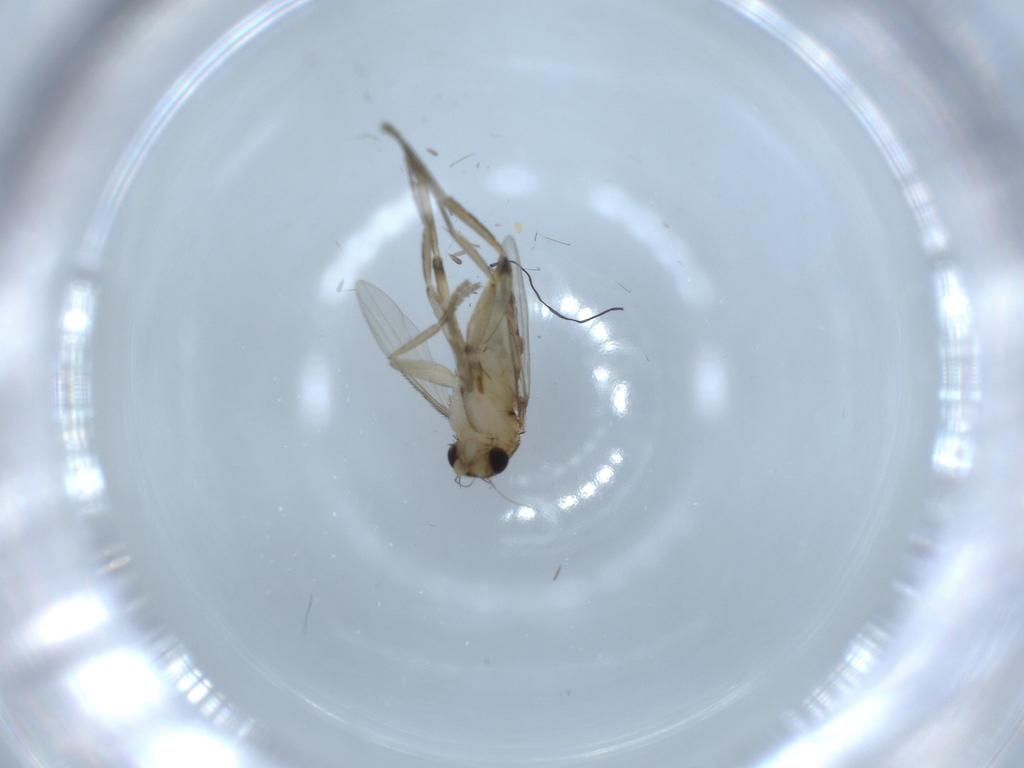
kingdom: Animalia
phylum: Arthropoda
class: Insecta
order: Diptera
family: Phoridae
